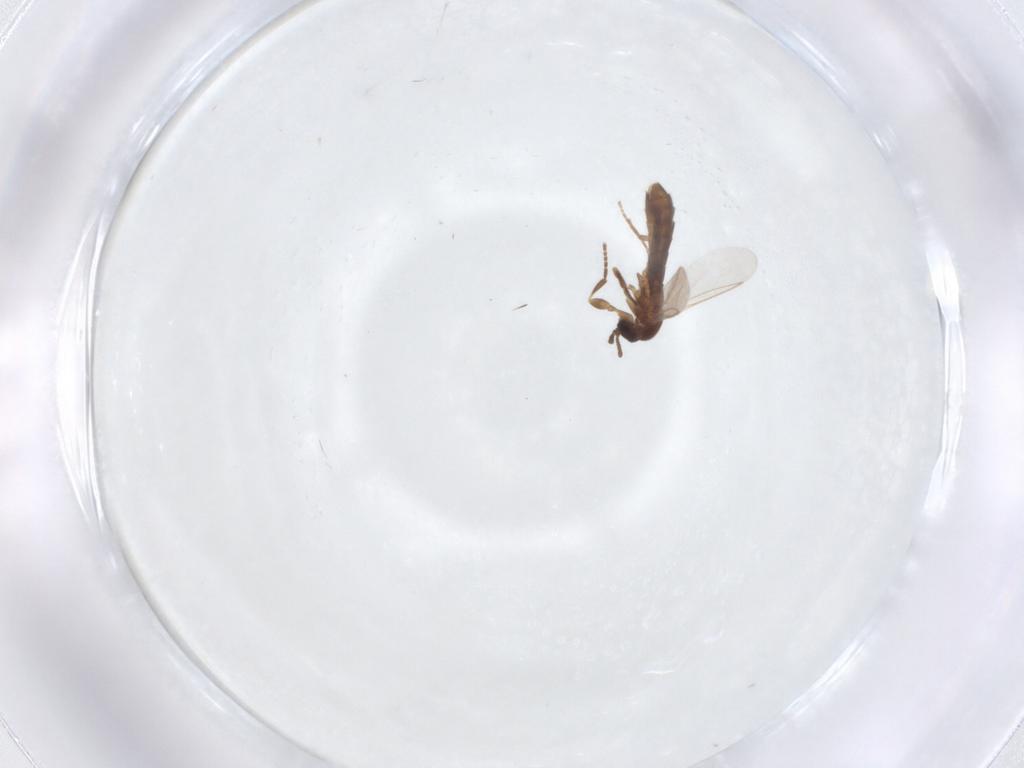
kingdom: Animalia
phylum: Arthropoda
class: Insecta
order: Diptera
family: Scatopsidae
